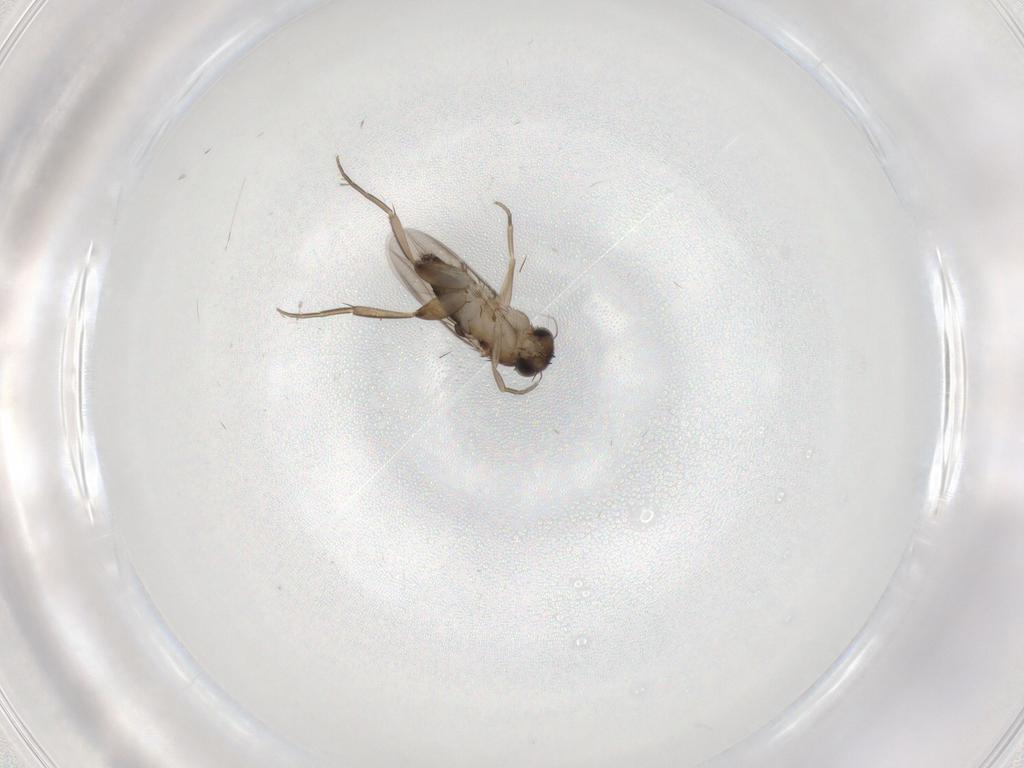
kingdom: Animalia
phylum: Arthropoda
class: Insecta
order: Diptera
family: Phoridae
